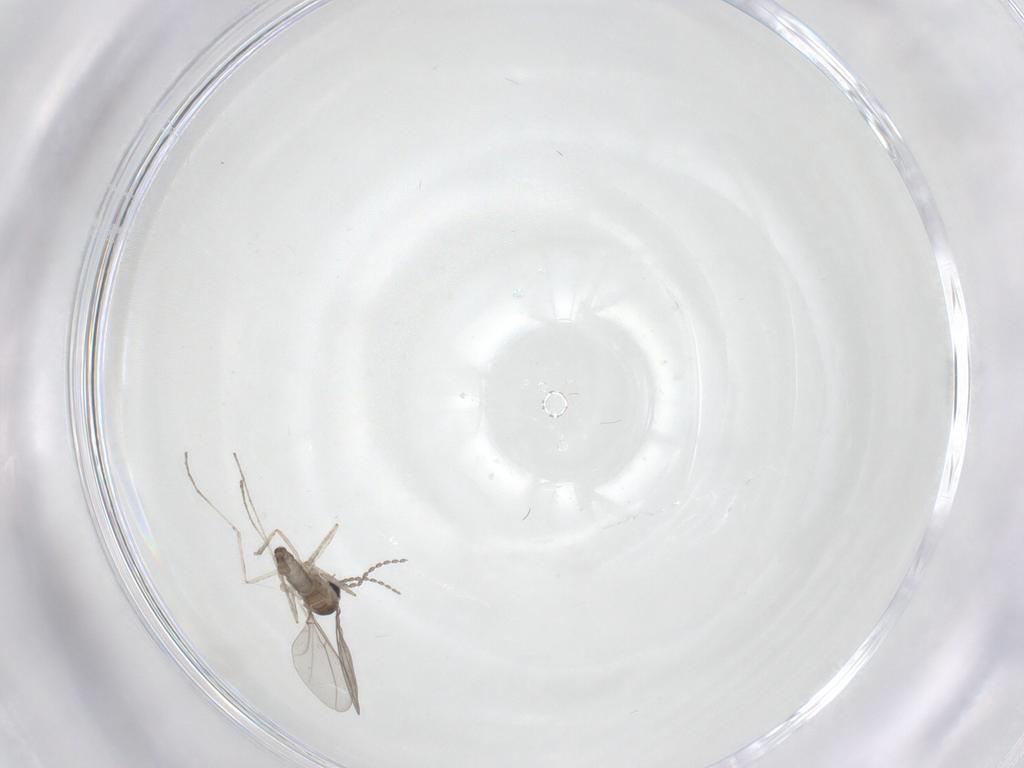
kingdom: Animalia
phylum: Arthropoda
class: Insecta
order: Diptera
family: Cecidomyiidae
